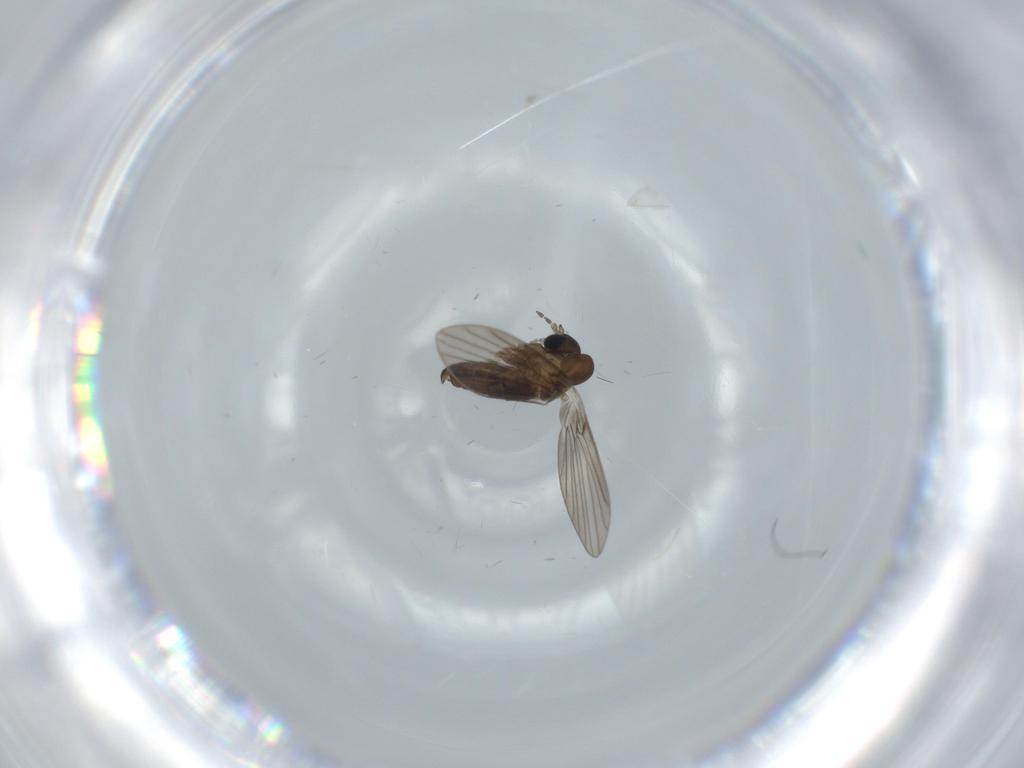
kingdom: Animalia
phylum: Arthropoda
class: Insecta
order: Diptera
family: Psychodidae
